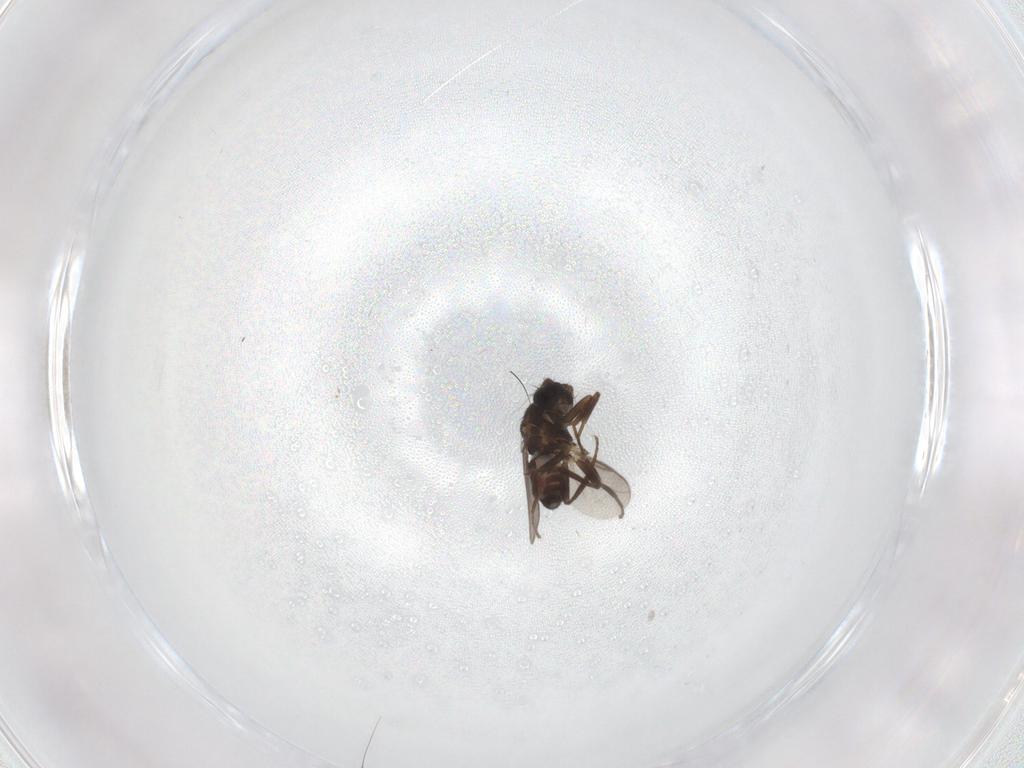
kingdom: Animalia
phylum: Arthropoda
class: Insecta
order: Diptera
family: Sphaeroceridae
